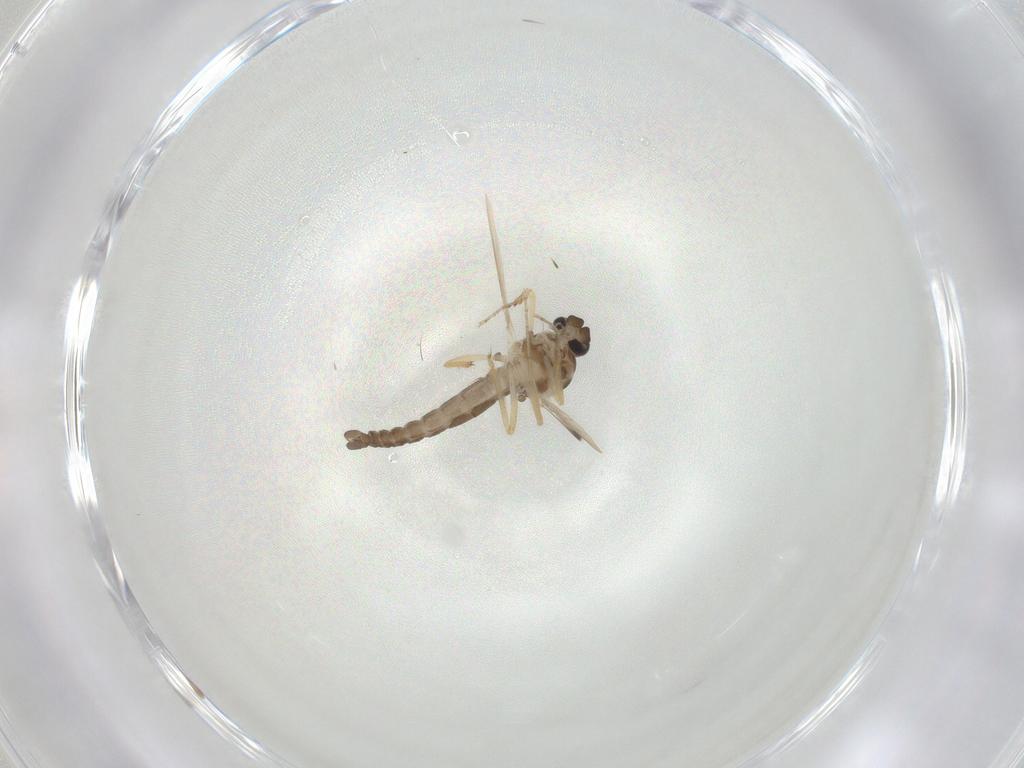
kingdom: Animalia
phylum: Arthropoda
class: Insecta
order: Diptera
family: Ceratopogonidae
